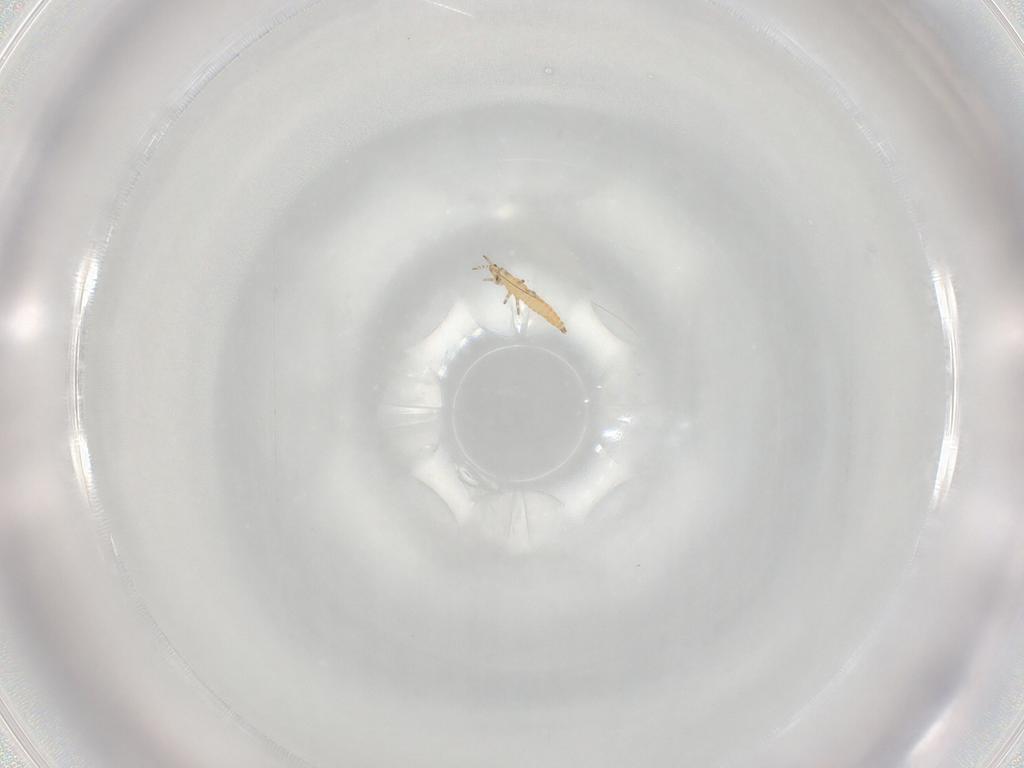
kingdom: Animalia
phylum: Arthropoda
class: Insecta
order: Thysanoptera
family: Thripidae
